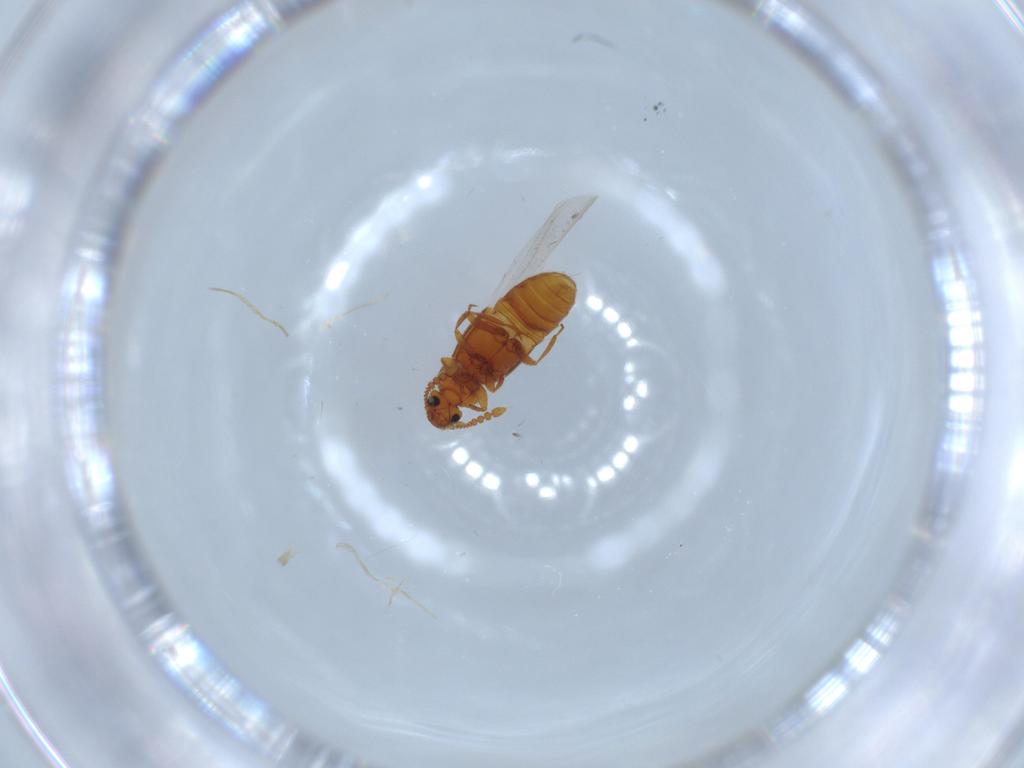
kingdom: Animalia
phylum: Arthropoda
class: Insecta
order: Coleoptera
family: Staphylinidae
